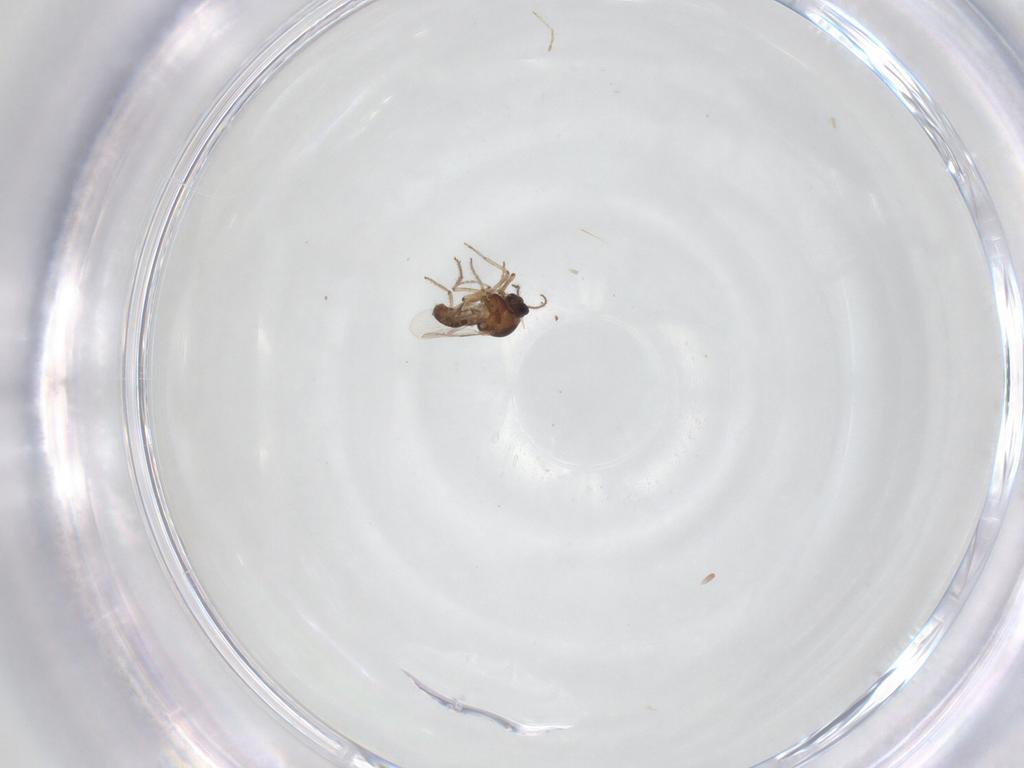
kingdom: Animalia
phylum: Arthropoda
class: Insecta
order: Diptera
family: Ceratopogonidae
